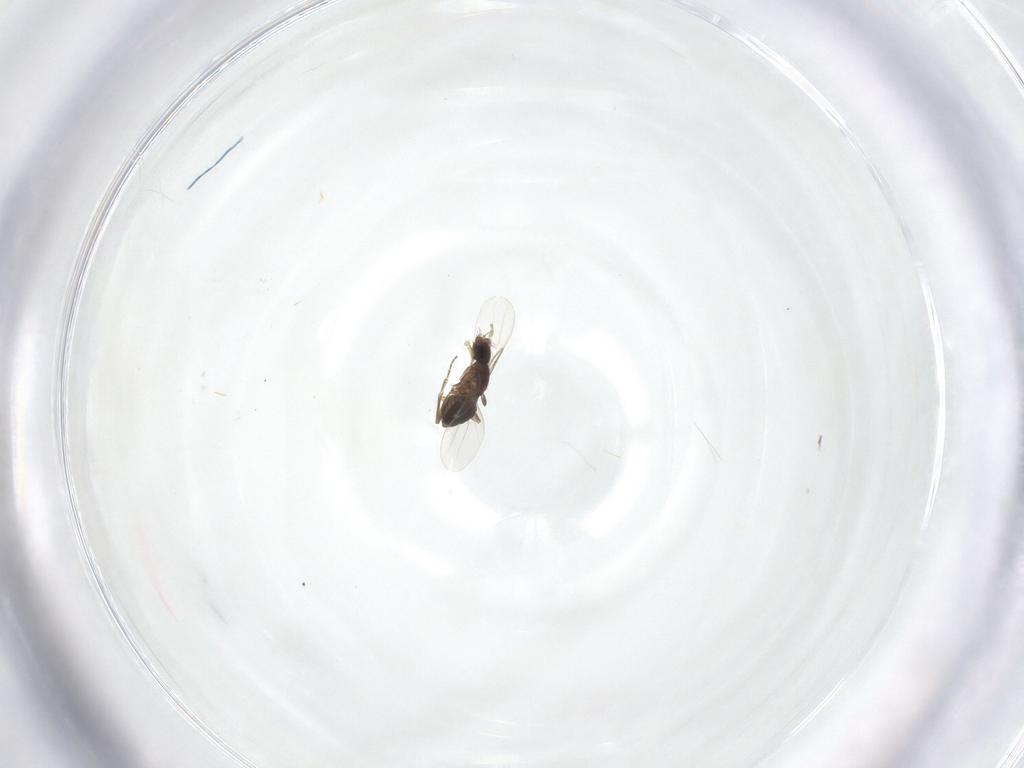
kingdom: Animalia
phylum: Arthropoda
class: Insecta
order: Diptera
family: Phoridae
